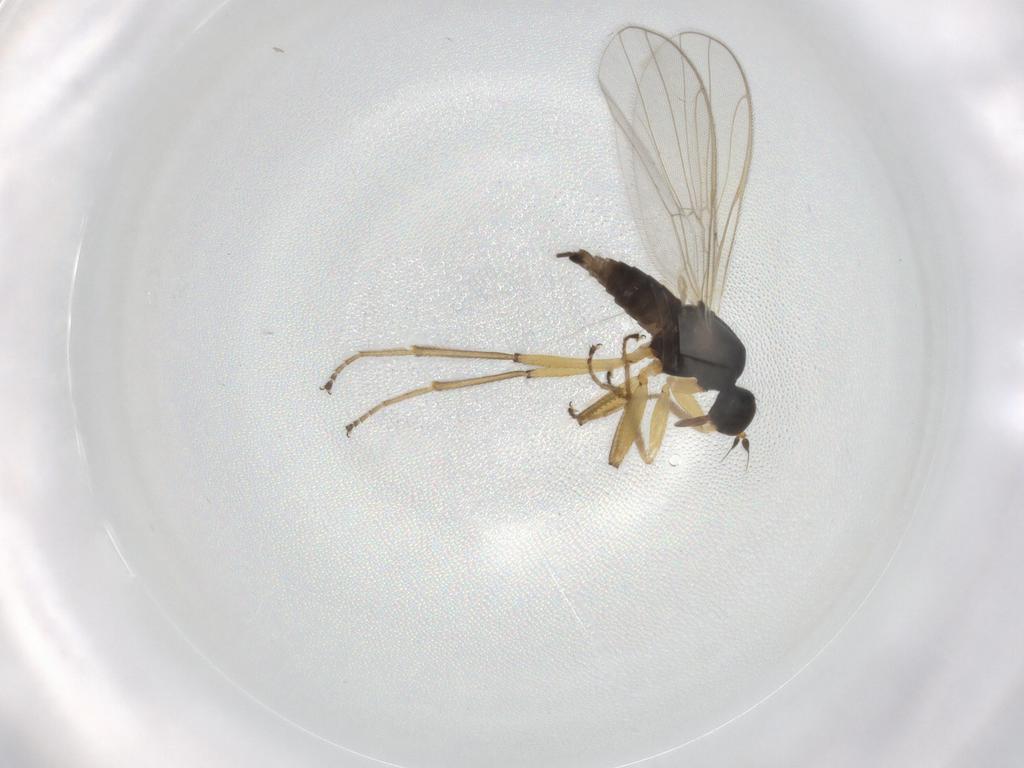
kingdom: Animalia
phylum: Arthropoda
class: Insecta
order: Diptera
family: Hybotidae
